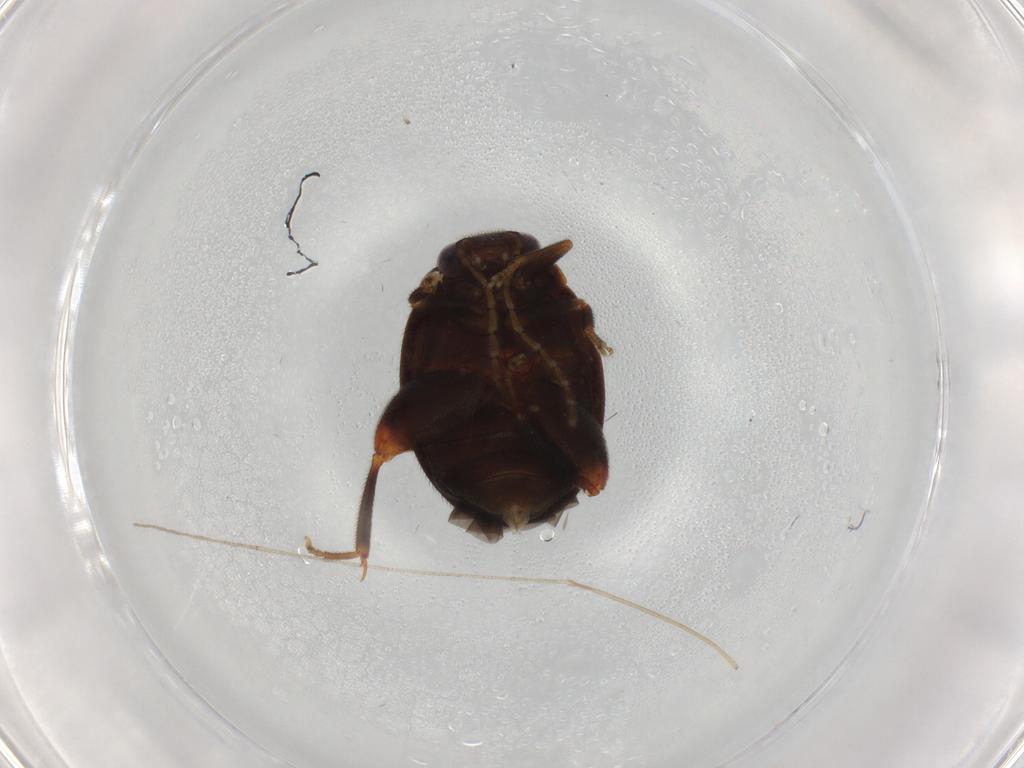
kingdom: Animalia
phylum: Arthropoda
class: Insecta
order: Coleoptera
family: Scirtidae
